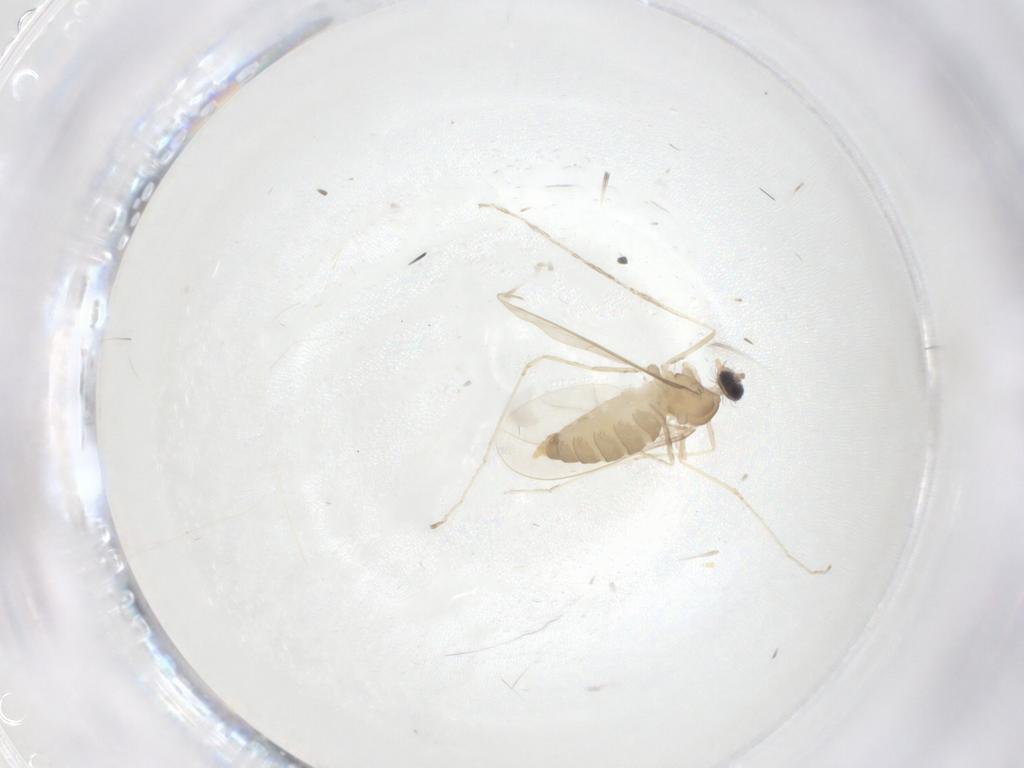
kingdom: Animalia
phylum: Arthropoda
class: Insecta
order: Diptera
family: Cecidomyiidae
